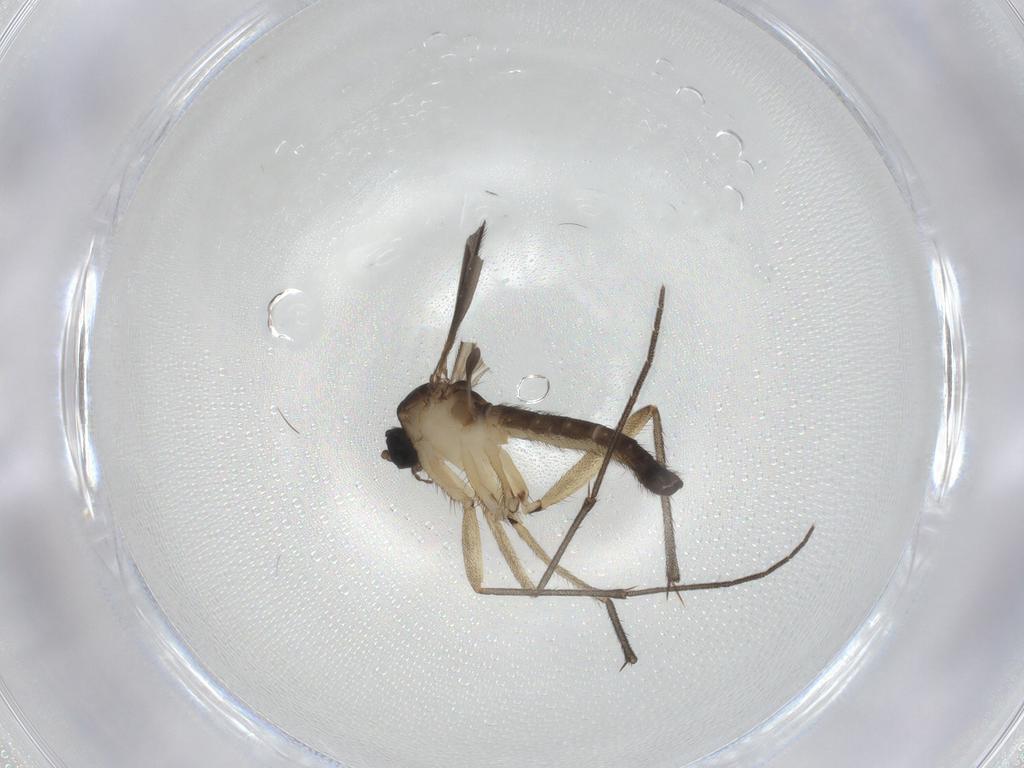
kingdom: Animalia
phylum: Arthropoda
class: Insecta
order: Diptera
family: Sciaridae
